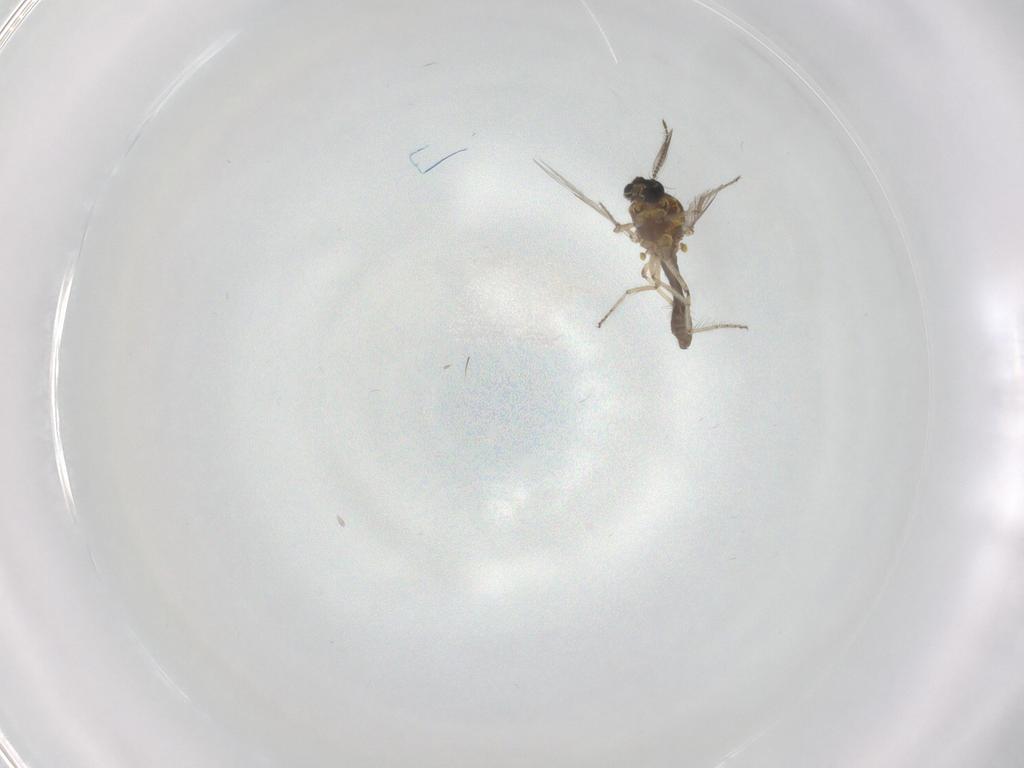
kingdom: Animalia
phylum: Arthropoda
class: Insecta
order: Diptera
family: Ceratopogonidae
